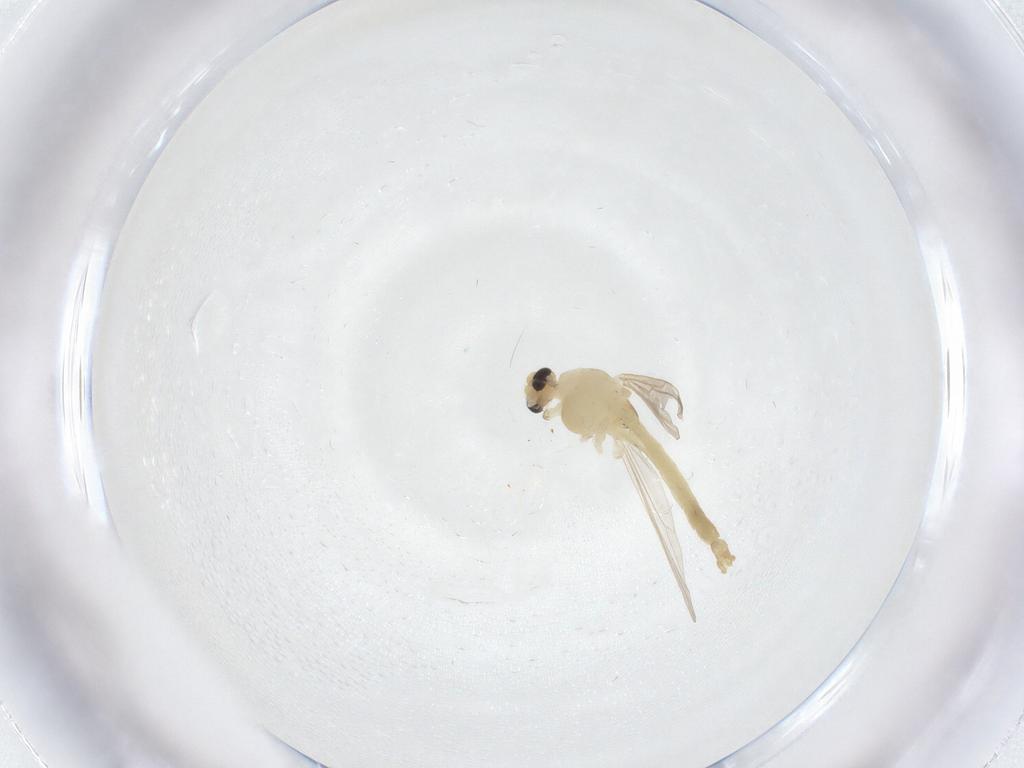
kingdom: Animalia
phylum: Arthropoda
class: Insecta
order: Diptera
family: Chironomidae
